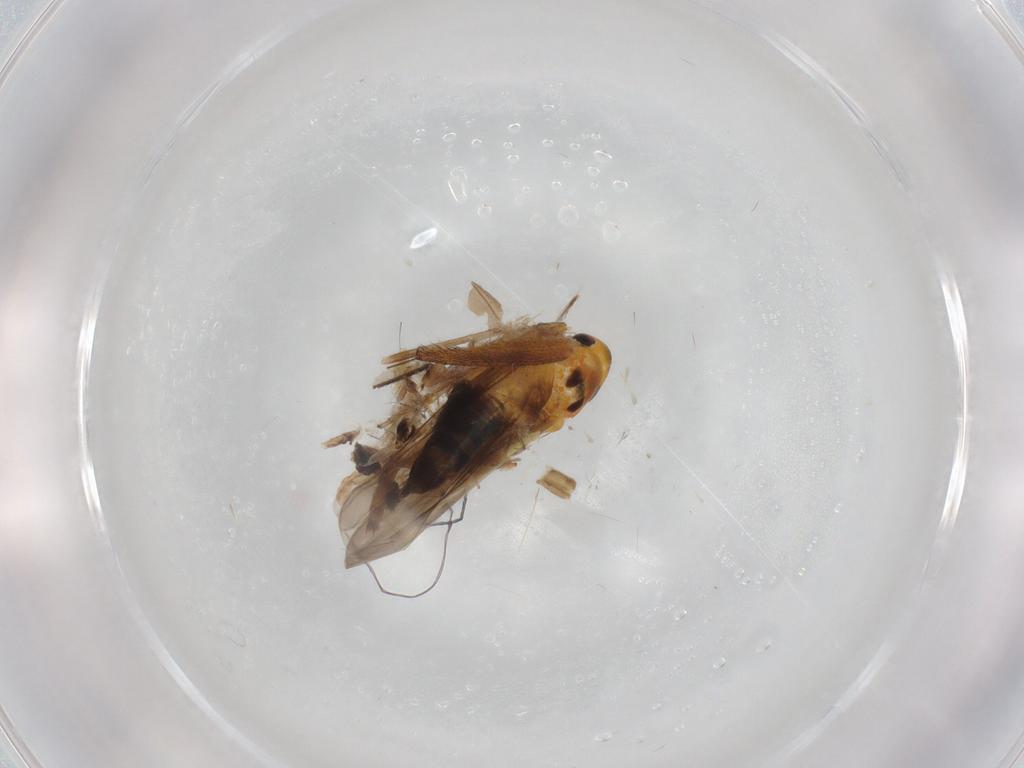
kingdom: Animalia
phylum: Arthropoda
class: Insecta
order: Hemiptera
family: Cicadellidae
